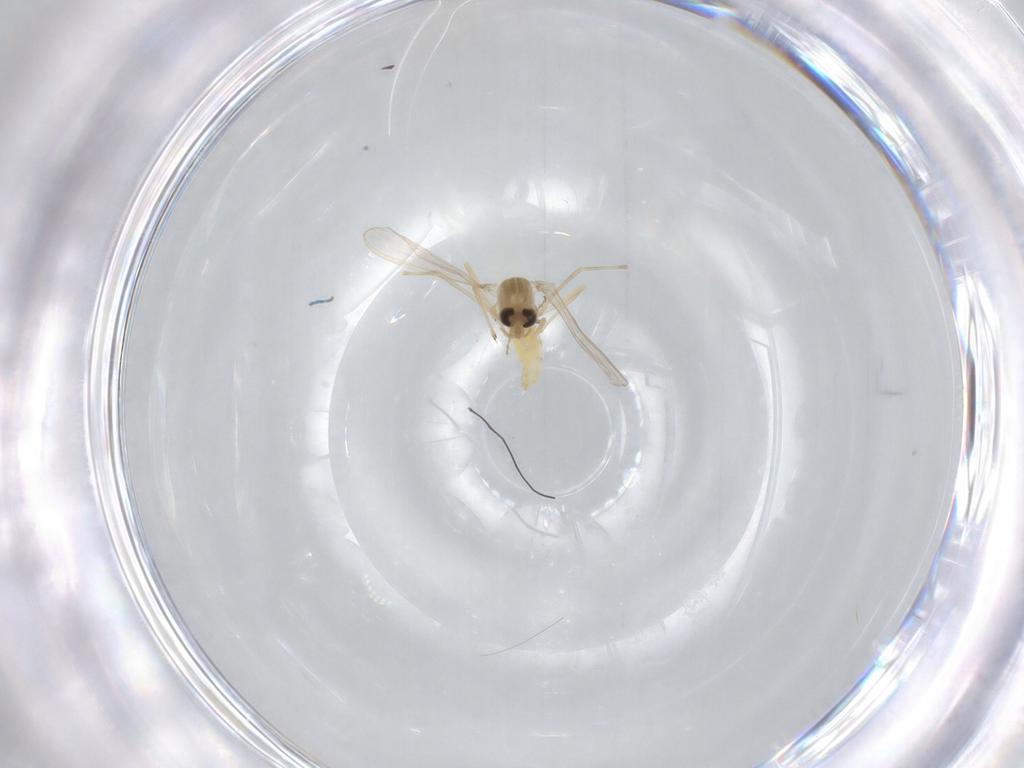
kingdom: Animalia
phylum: Arthropoda
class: Insecta
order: Diptera
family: Chironomidae
